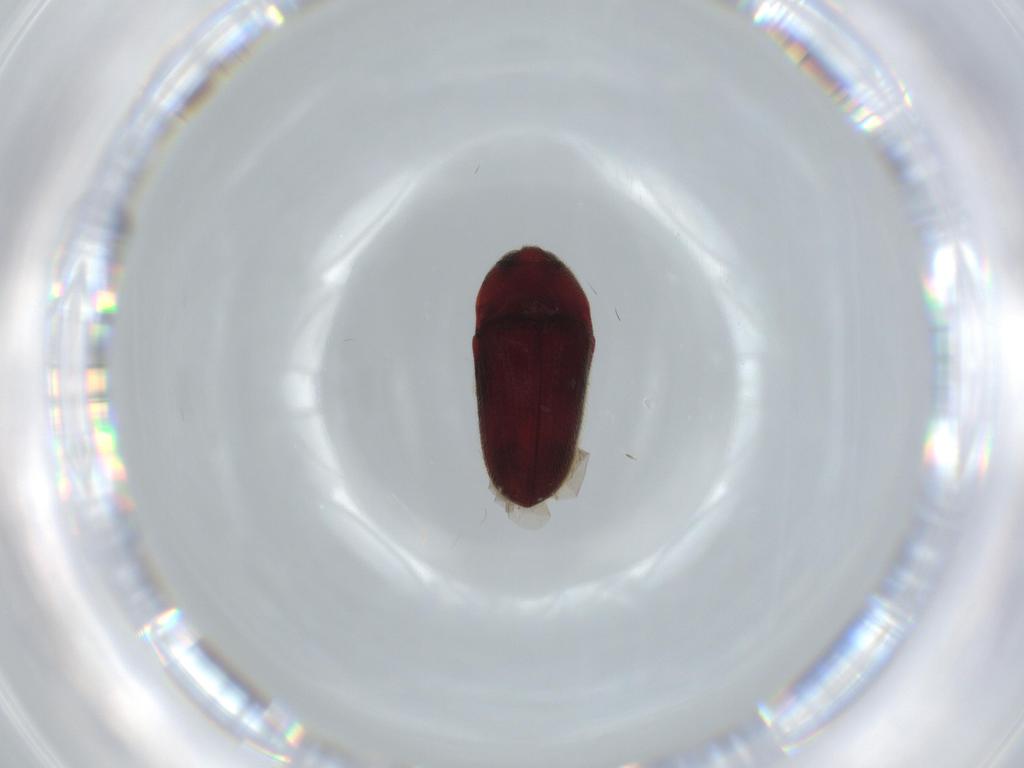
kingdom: Animalia
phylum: Arthropoda
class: Insecta
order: Coleoptera
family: Throscidae
